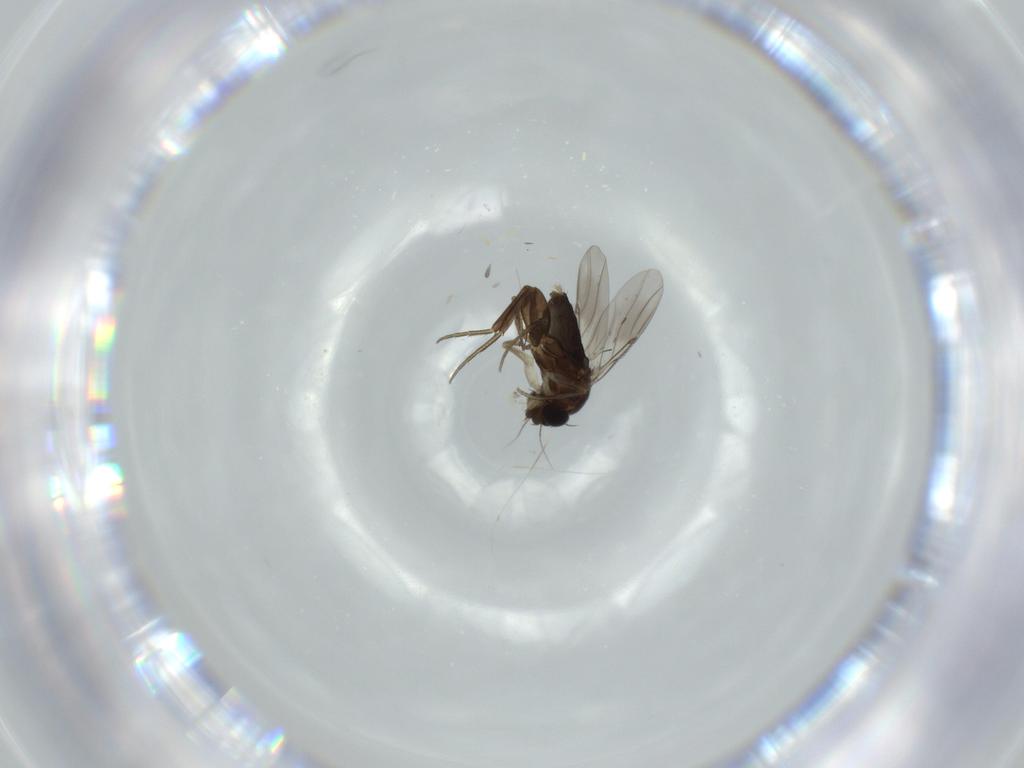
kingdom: Animalia
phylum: Arthropoda
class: Insecta
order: Diptera
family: Phoridae
